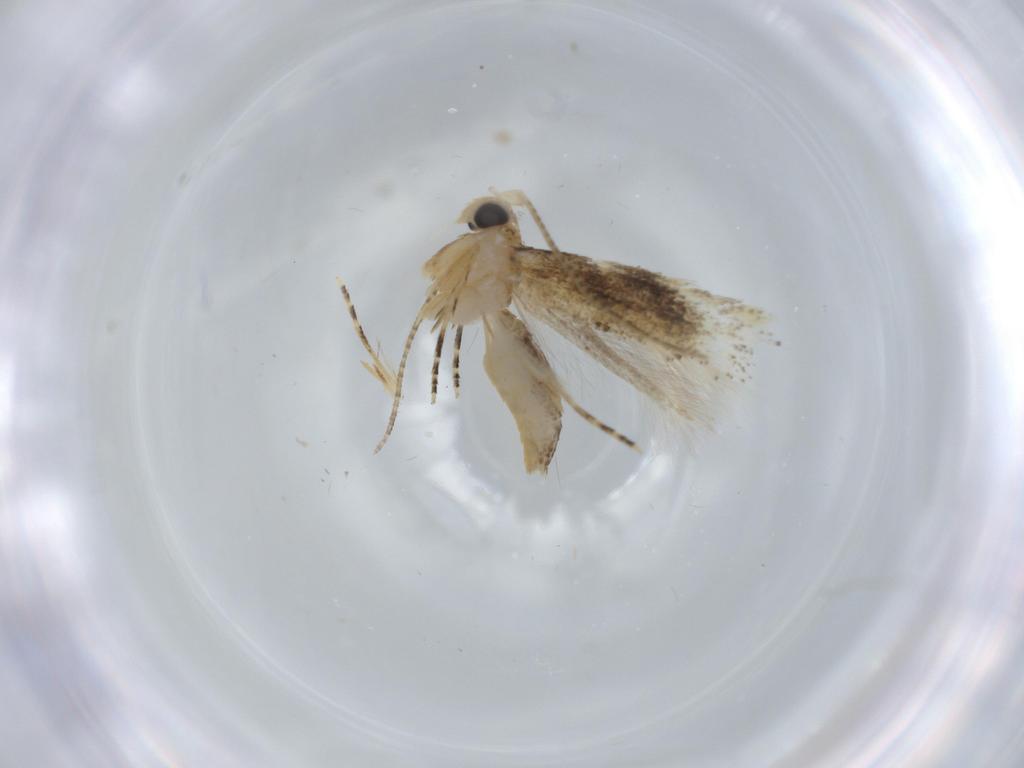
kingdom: Animalia
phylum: Arthropoda
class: Insecta
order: Lepidoptera
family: Bucculatricidae
